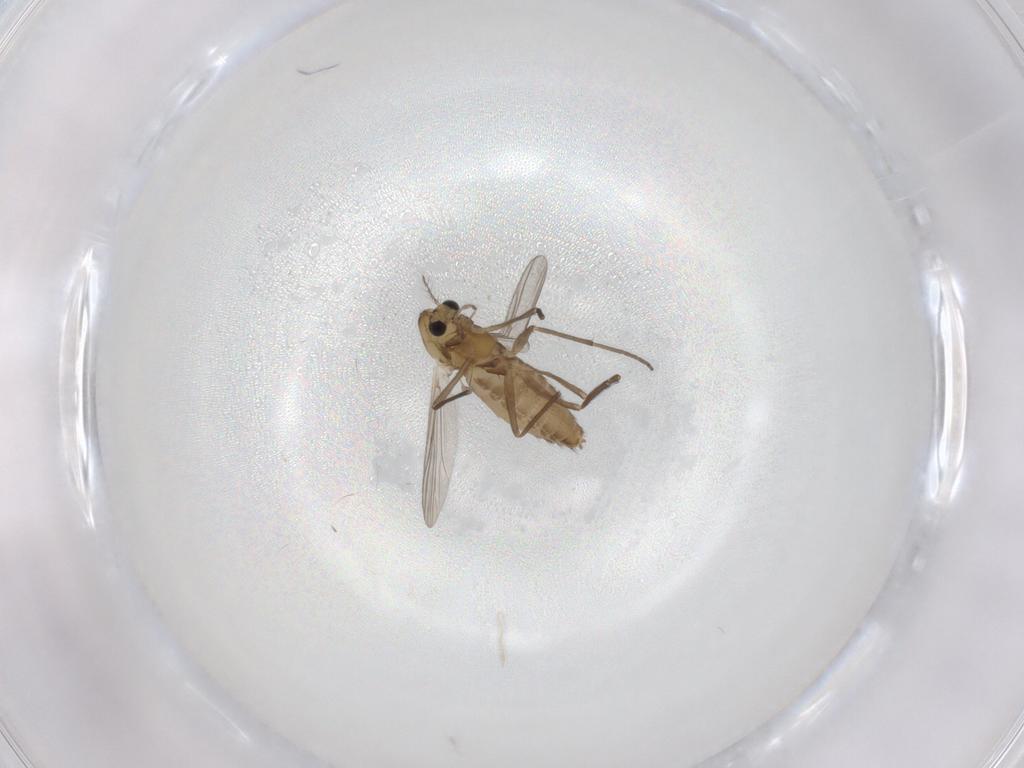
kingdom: Animalia
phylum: Arthropoda
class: Insecta
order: Diptera
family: Chironomidae
